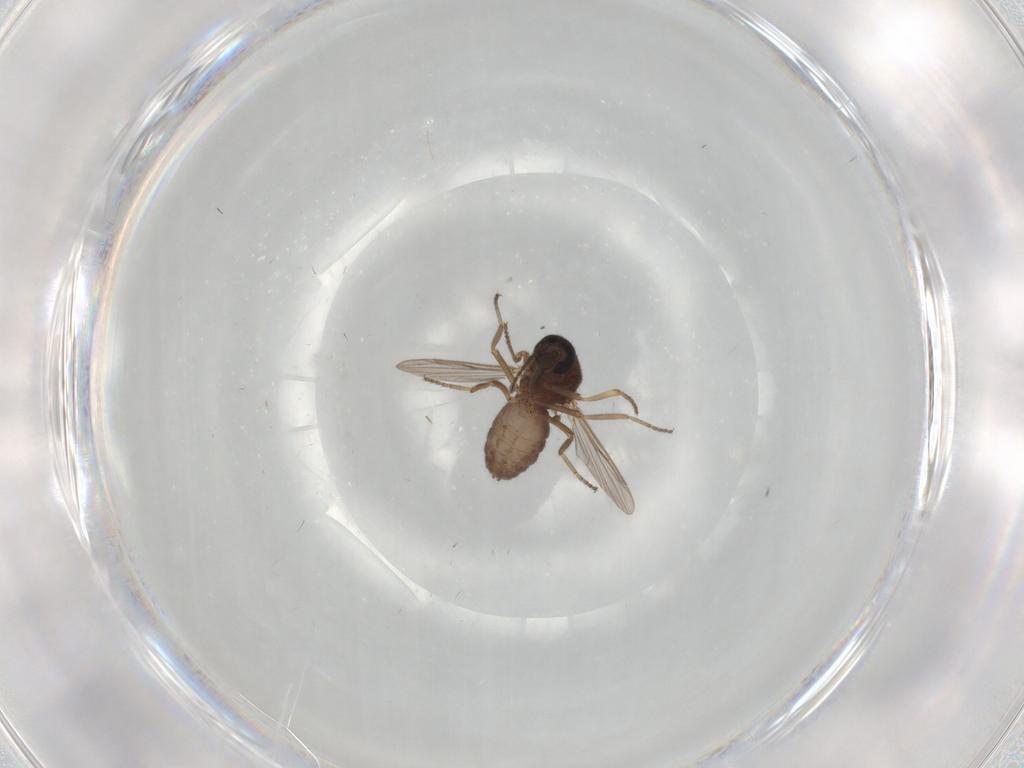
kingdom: Animalia
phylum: Arthropoda
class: Insecta
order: Diptera
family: Ceratopogonidae
